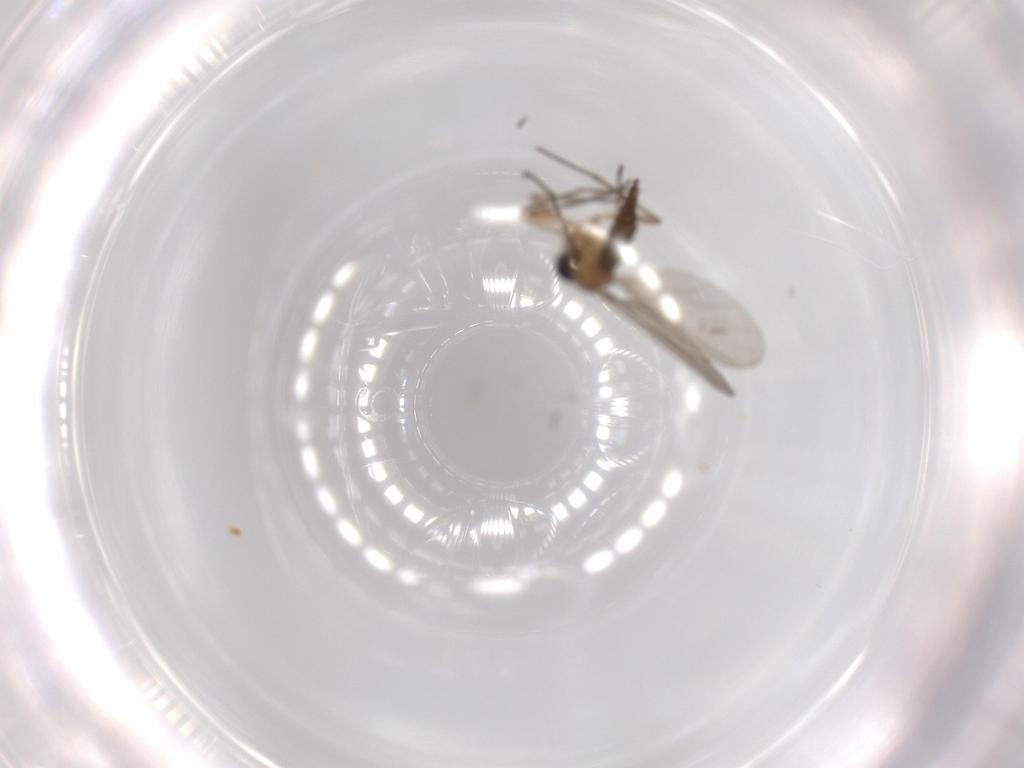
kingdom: Animalia
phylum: Arthropoda
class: Insecta
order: Diptera
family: Sciaridae
